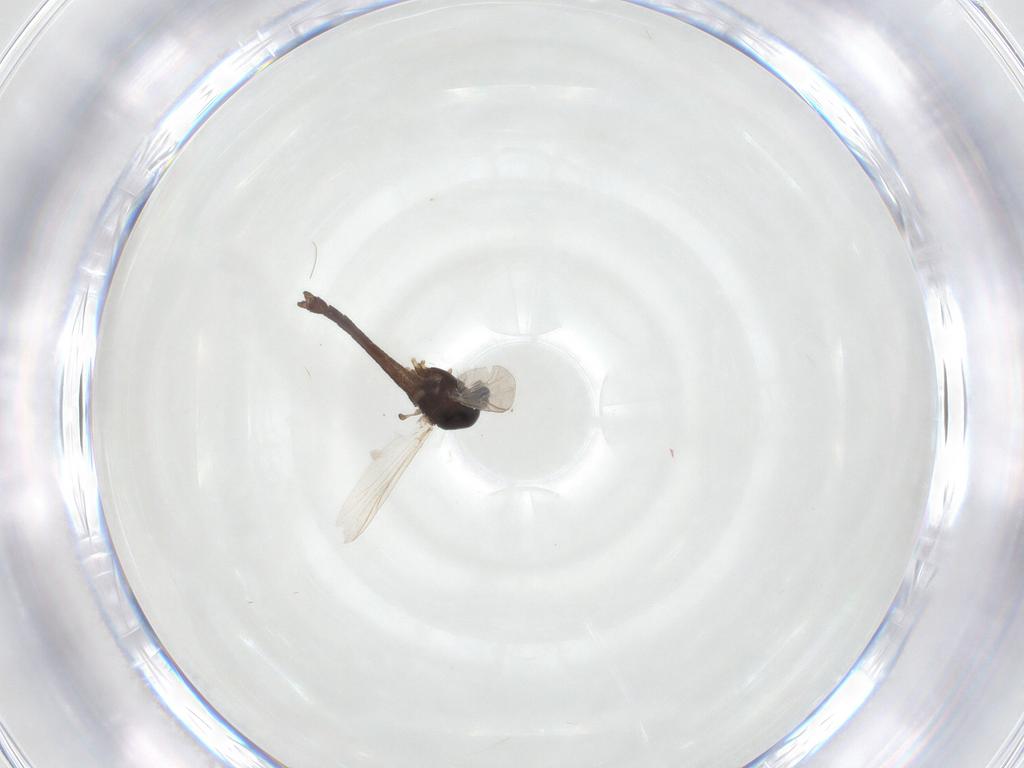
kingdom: Animalia
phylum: Arthropoda
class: Insecta
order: Diptera
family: Chironomidae
